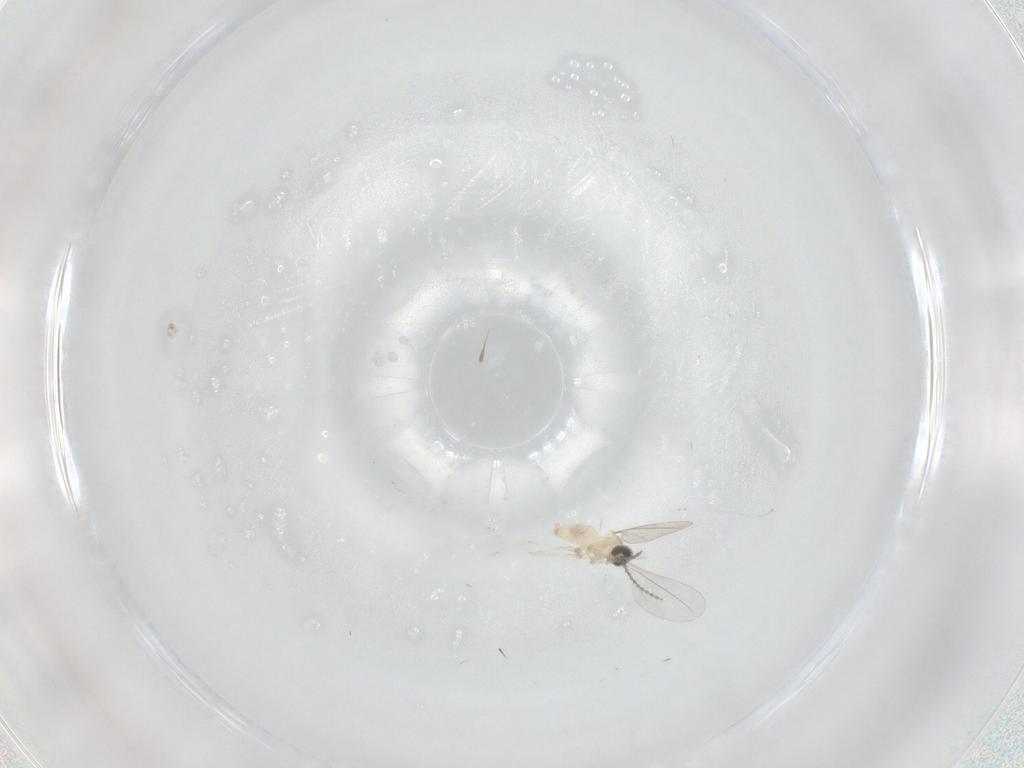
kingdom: Animalia
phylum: Arthropoda
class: Insecta
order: Diptera
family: Cecidomyiidae
